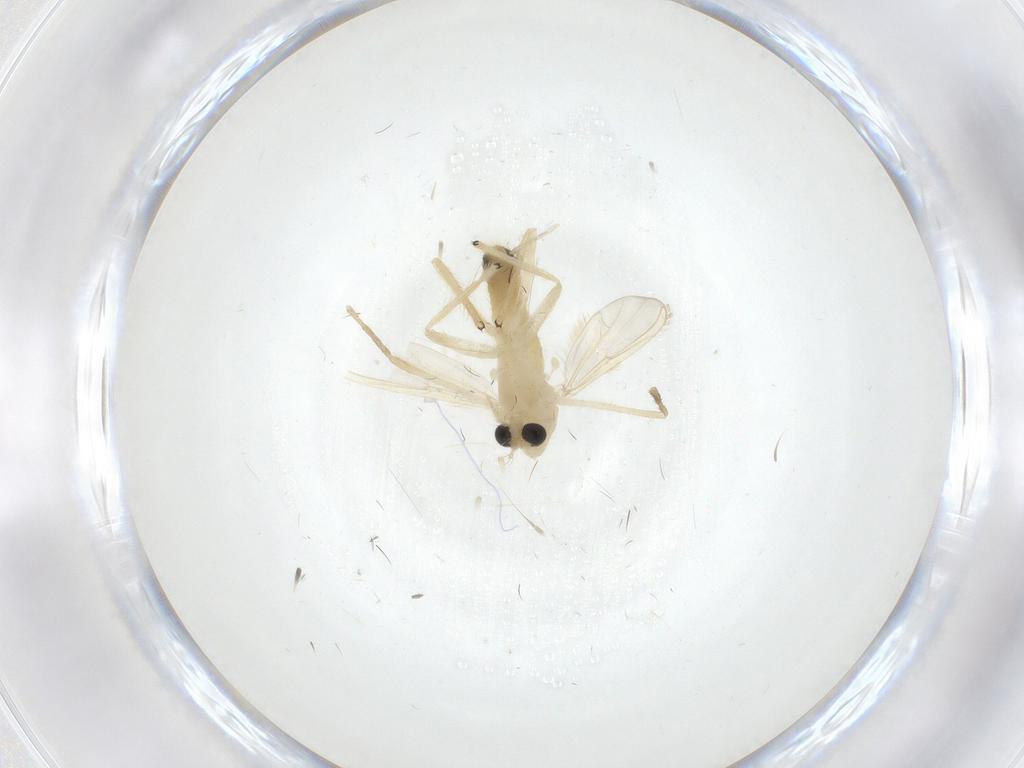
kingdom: Animalia
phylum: Arthropoda
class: Insecta
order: Diptera
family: Chironomidae
